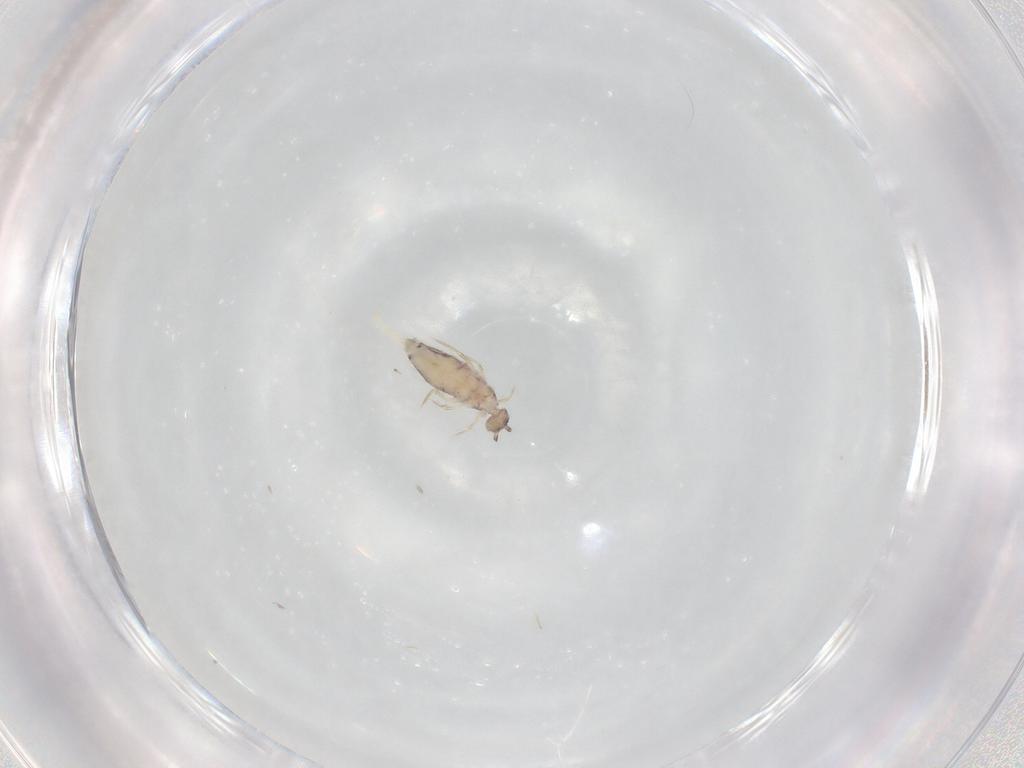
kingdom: Animalia
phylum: Arthropoda
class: Collembola
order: Entomobryomorpha
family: Entomobryidae
